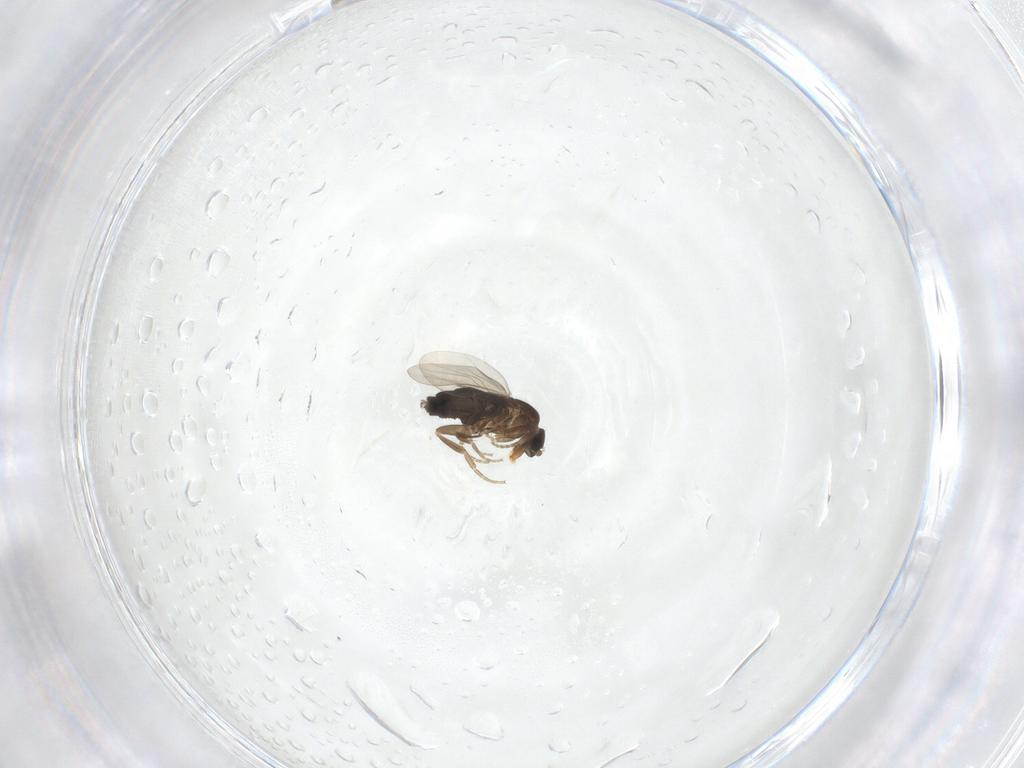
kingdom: Animalia
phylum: Arthropoda
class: Insecta
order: Diptera
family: Phoridae
